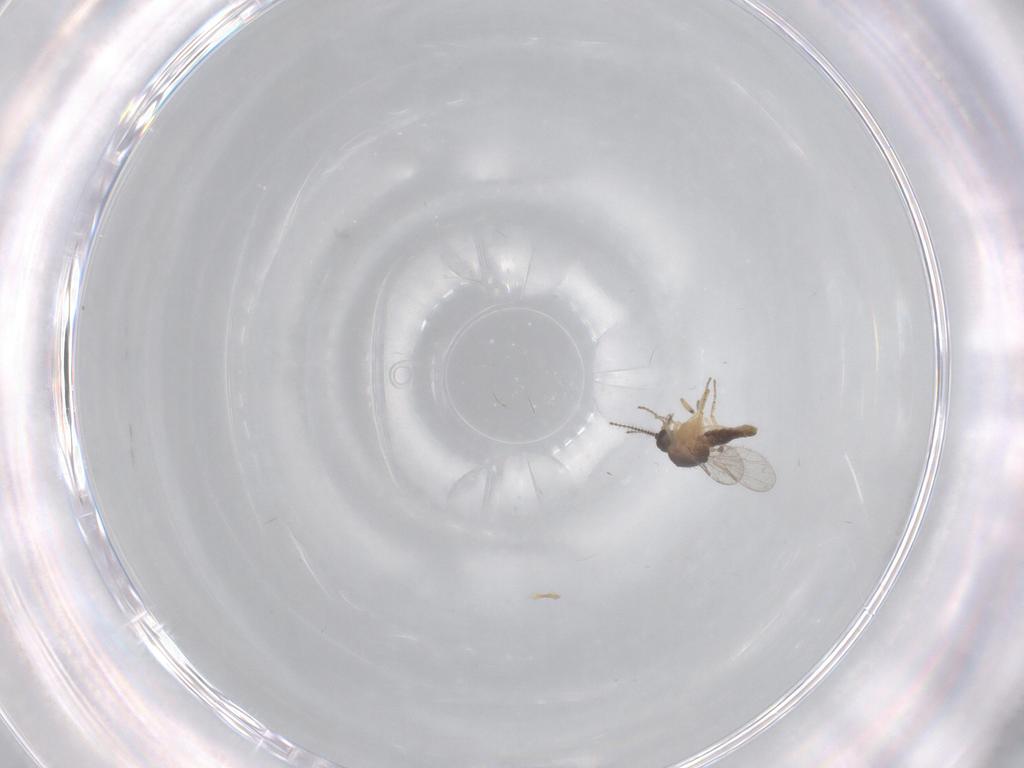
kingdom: Animalia
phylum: Arthropoda
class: Insecta
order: Diptera
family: Ceratopogonidae
